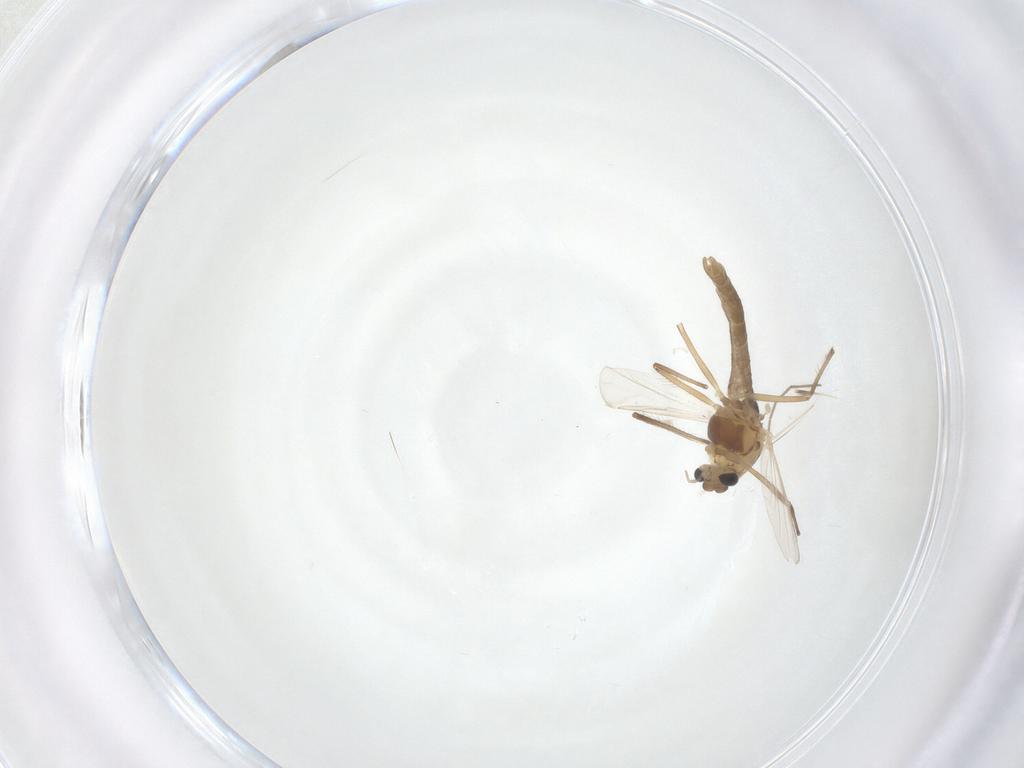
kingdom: Animalia
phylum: Arthropoda
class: Insecta
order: Diptera
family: Chironomidae
